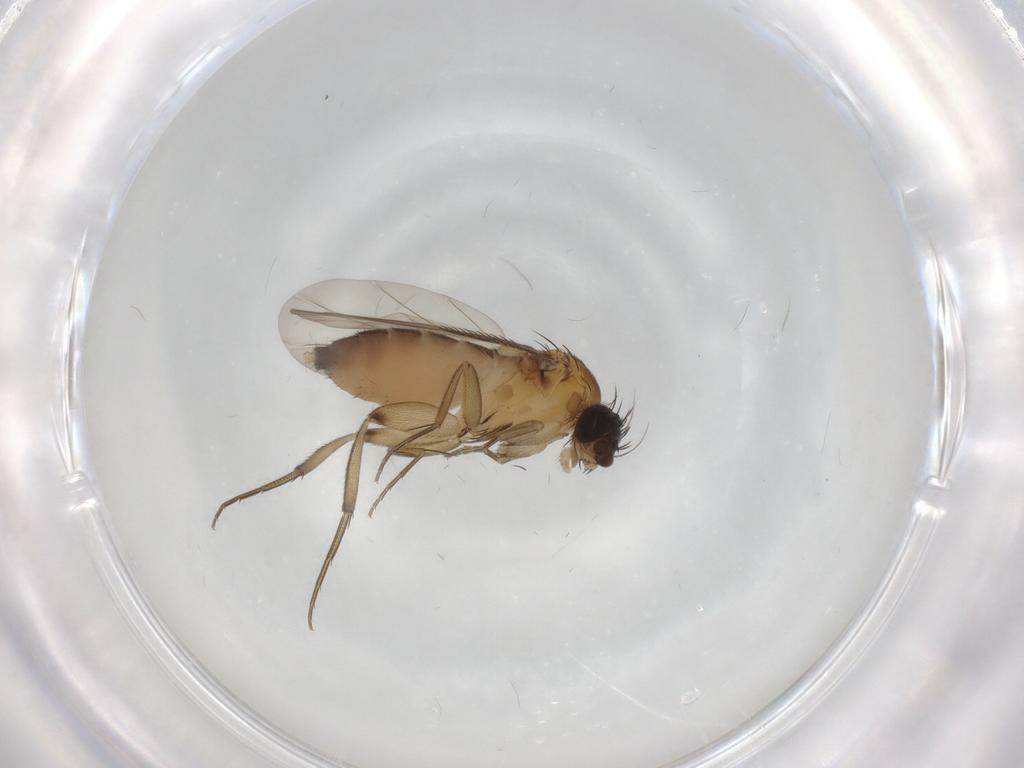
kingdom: Animalia
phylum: Arthropoda
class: Insecta
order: Diptera
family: Phoridae
